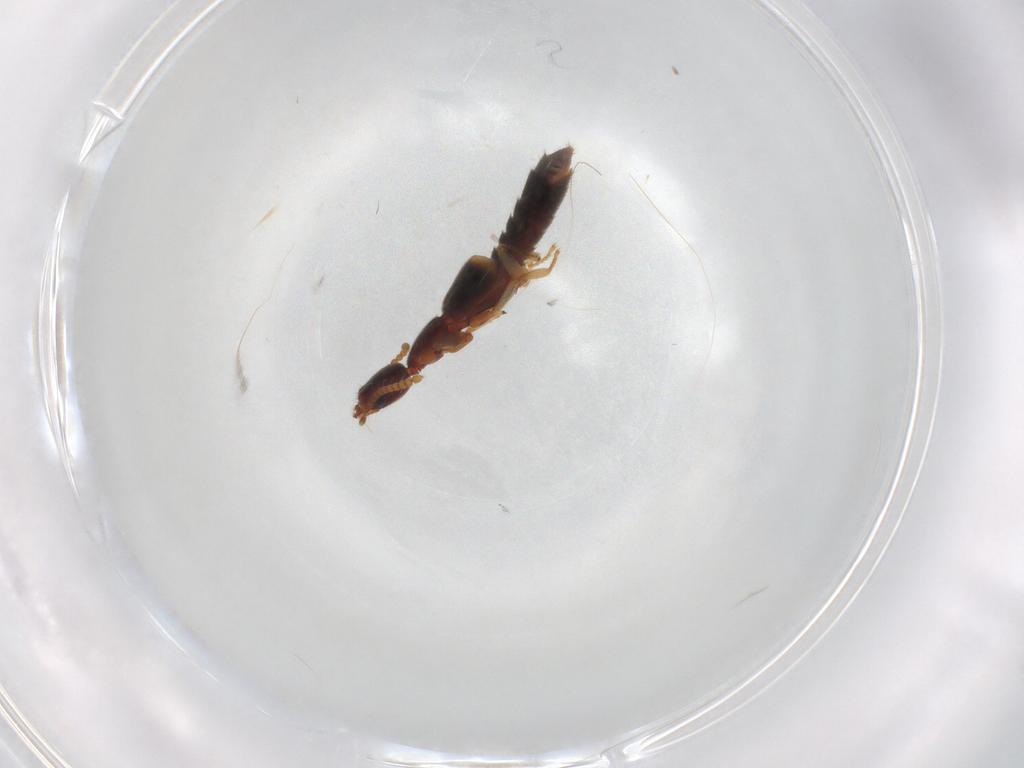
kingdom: Animalia
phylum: Arthropoda
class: Insecta
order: Coleoptera
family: Staphylinidae
